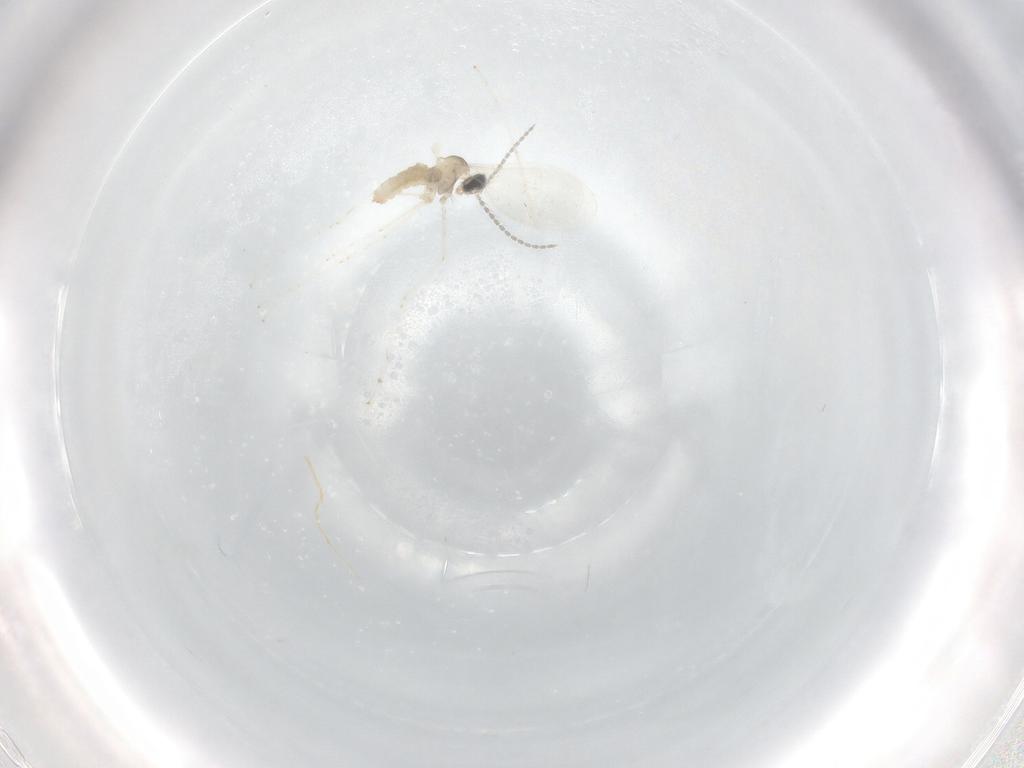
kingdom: Animalia
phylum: Arthropoda
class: Insecta
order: Diptera
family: Cecidomyiidae
